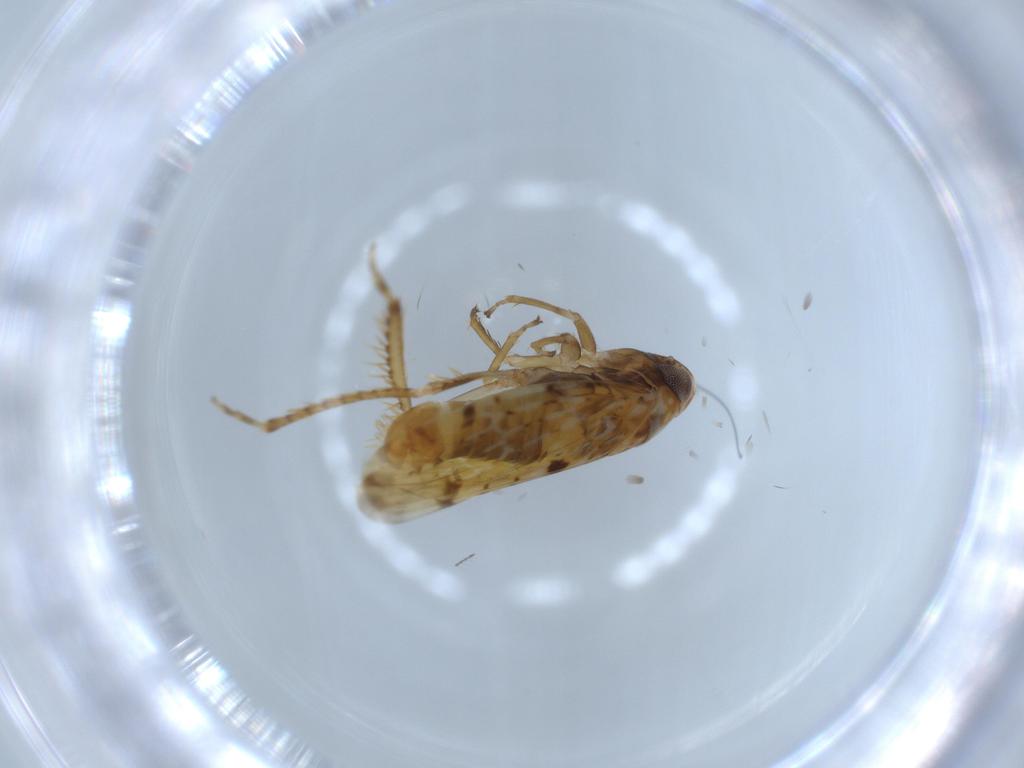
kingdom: Animalia
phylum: Arthropoda
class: Insecta
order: Hemiptera
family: Cicadellidae
